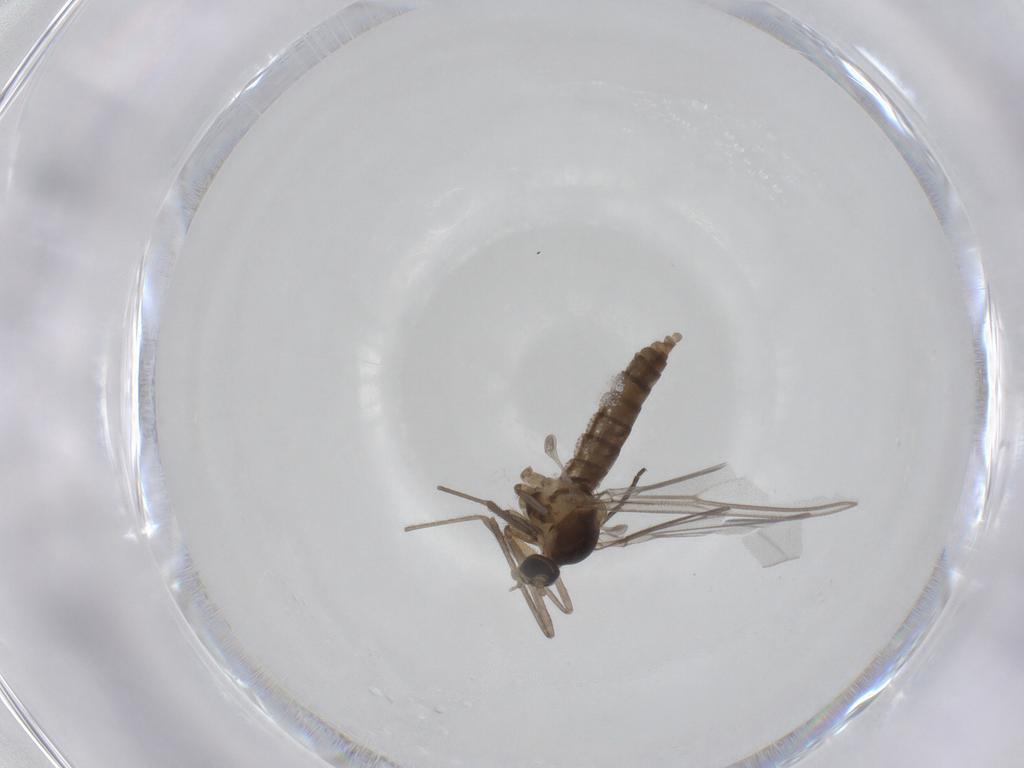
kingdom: Animalia
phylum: Arthropoda
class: Insecta
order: Diptera
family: Cecidomyiidae
